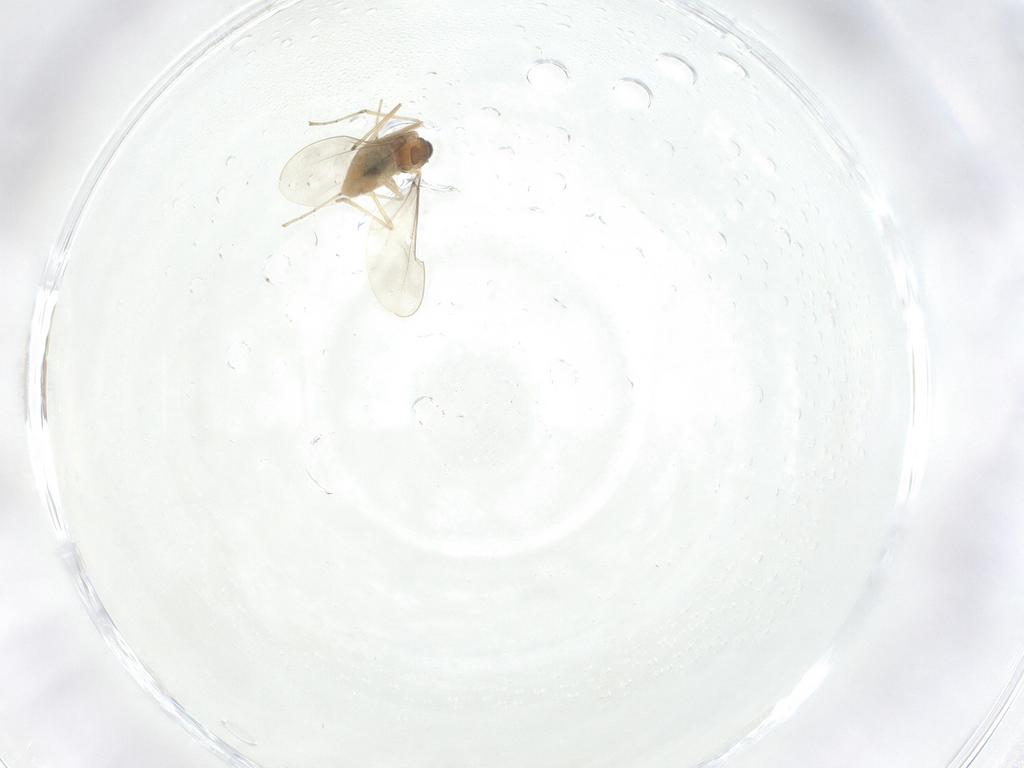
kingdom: Animalia
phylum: Arthropoda
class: Insecta
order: Diptera
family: Cecidomyiidae
